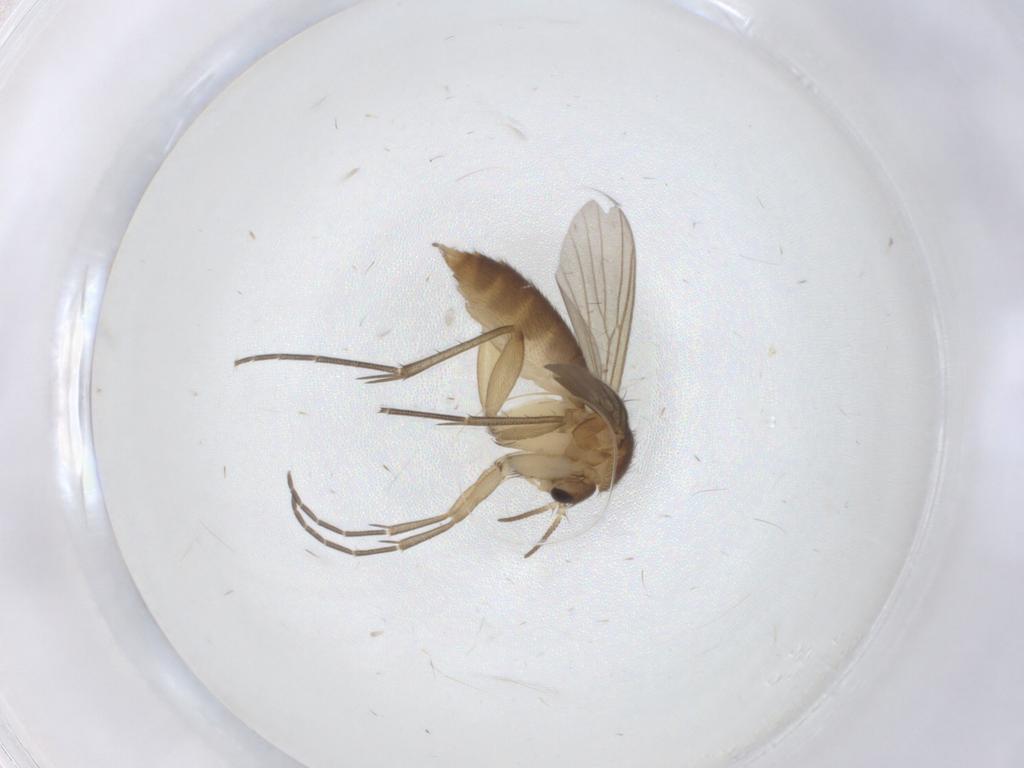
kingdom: Animalia
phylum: Arthropoda
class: Insecta
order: Diptera
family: Mycetophilidae
